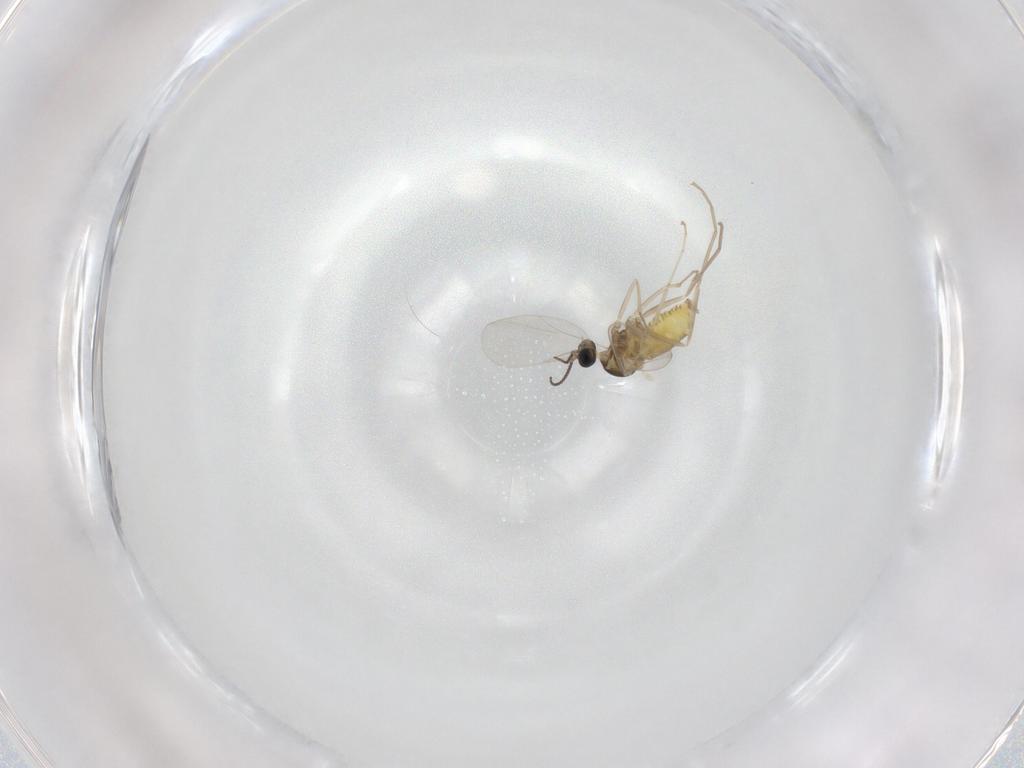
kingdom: Animalia
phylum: Arthropoda
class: Insecta
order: Diptera
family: Cecidomyiidae
